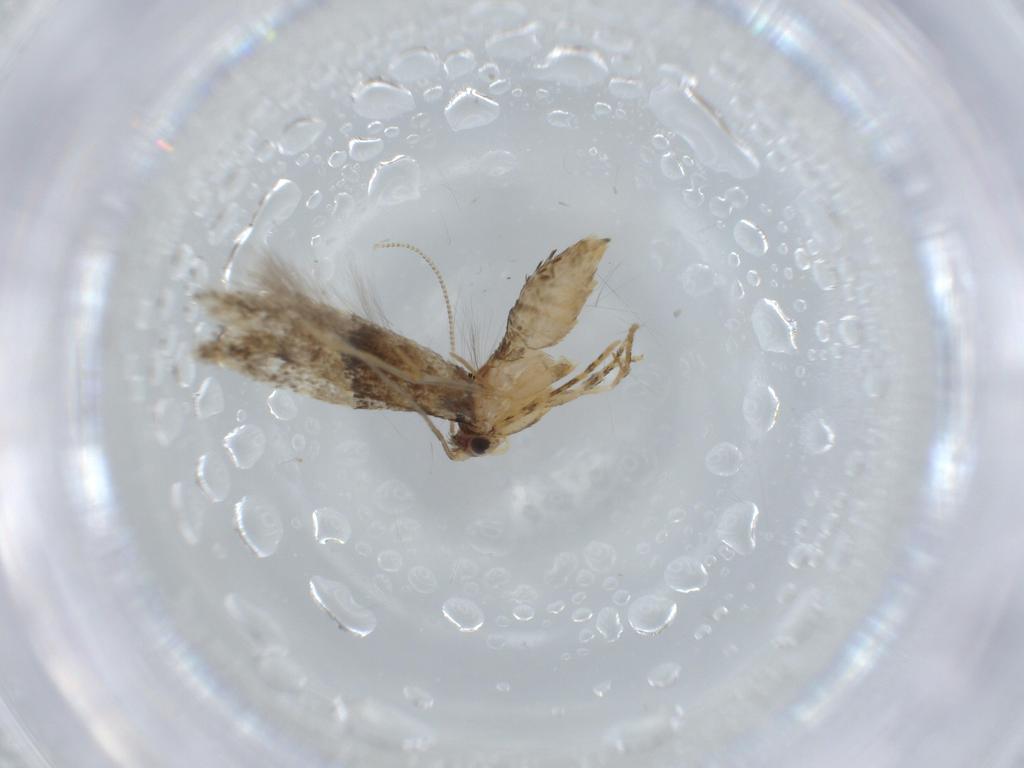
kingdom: Animalia
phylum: Arthropoda
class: Insecta
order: Lepidoptera
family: Tineidae
